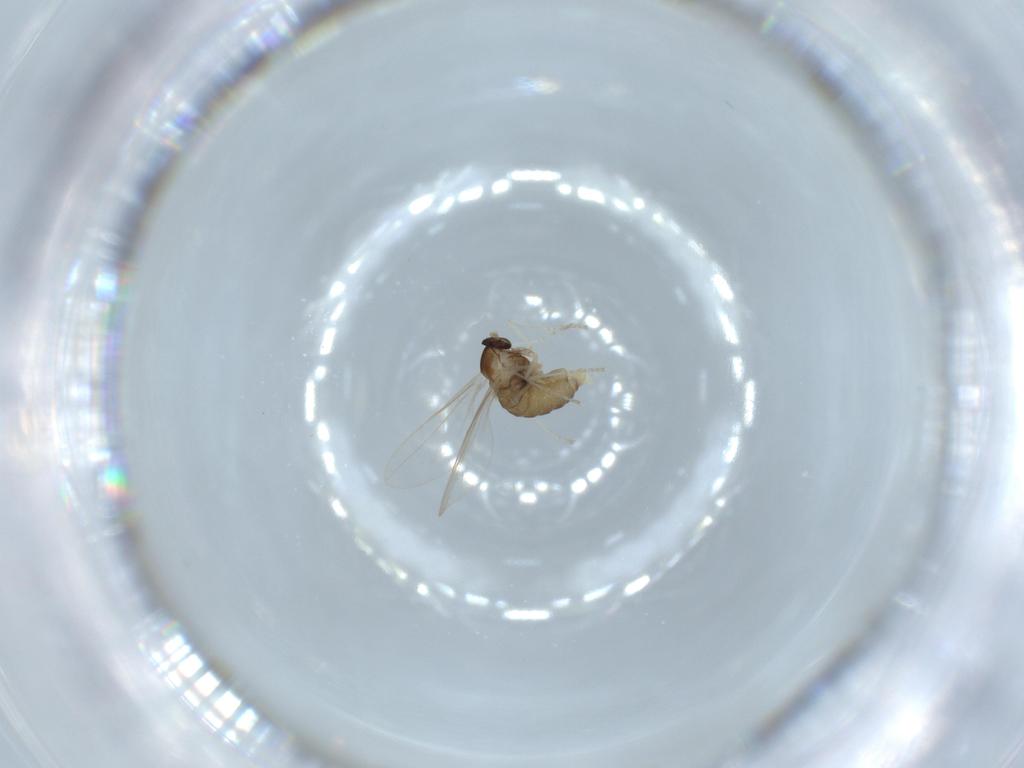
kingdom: Animalia
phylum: Arthropoda
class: Insecta
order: Diptera
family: Cecidomyiidae
